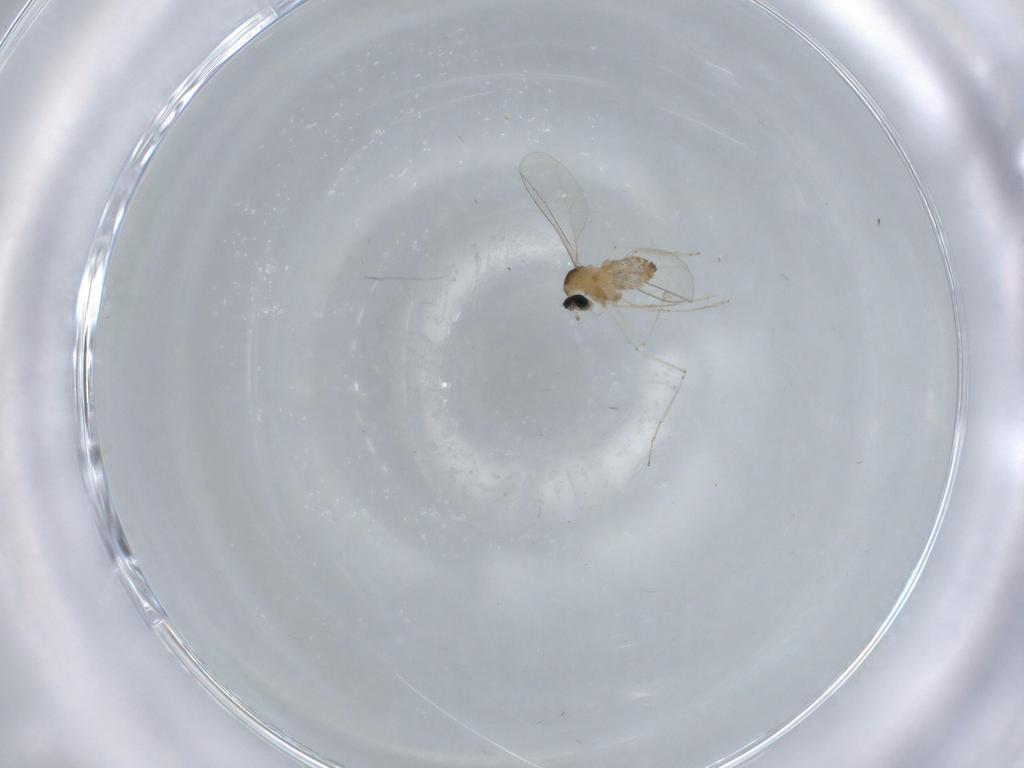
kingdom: Animalia
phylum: Arthropoda
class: Insecta
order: Diptera
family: Cecidomyiidae
